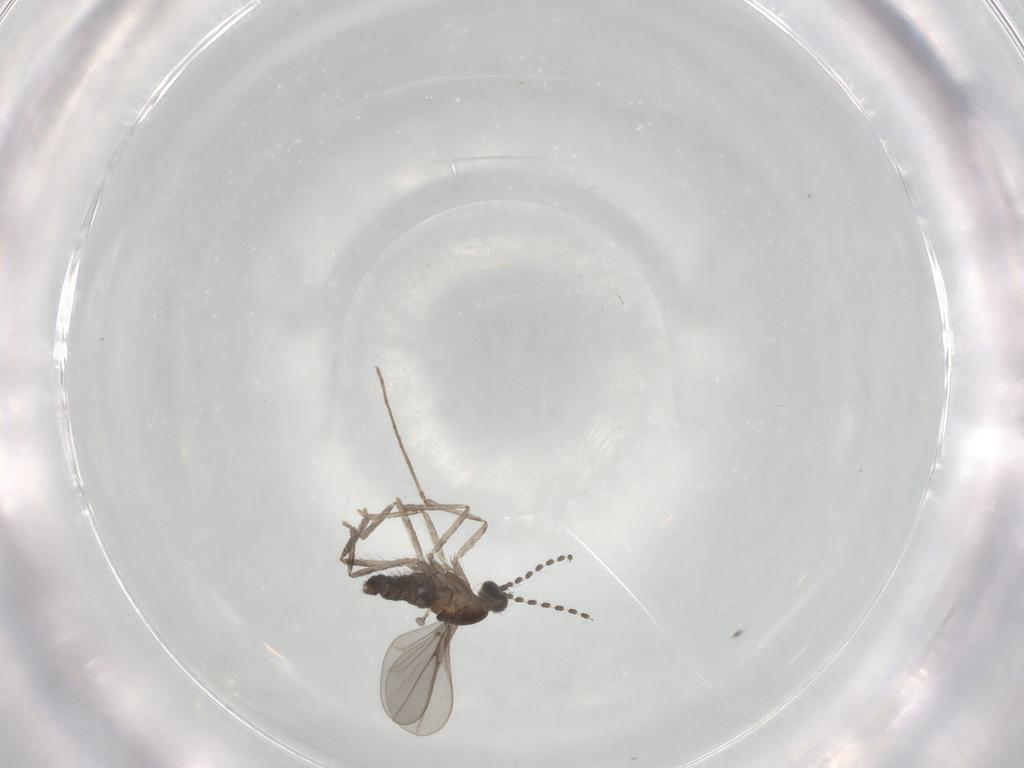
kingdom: Animalia
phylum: Arthropoda
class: Insecta
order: Diptera
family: Cecidomyiidae
